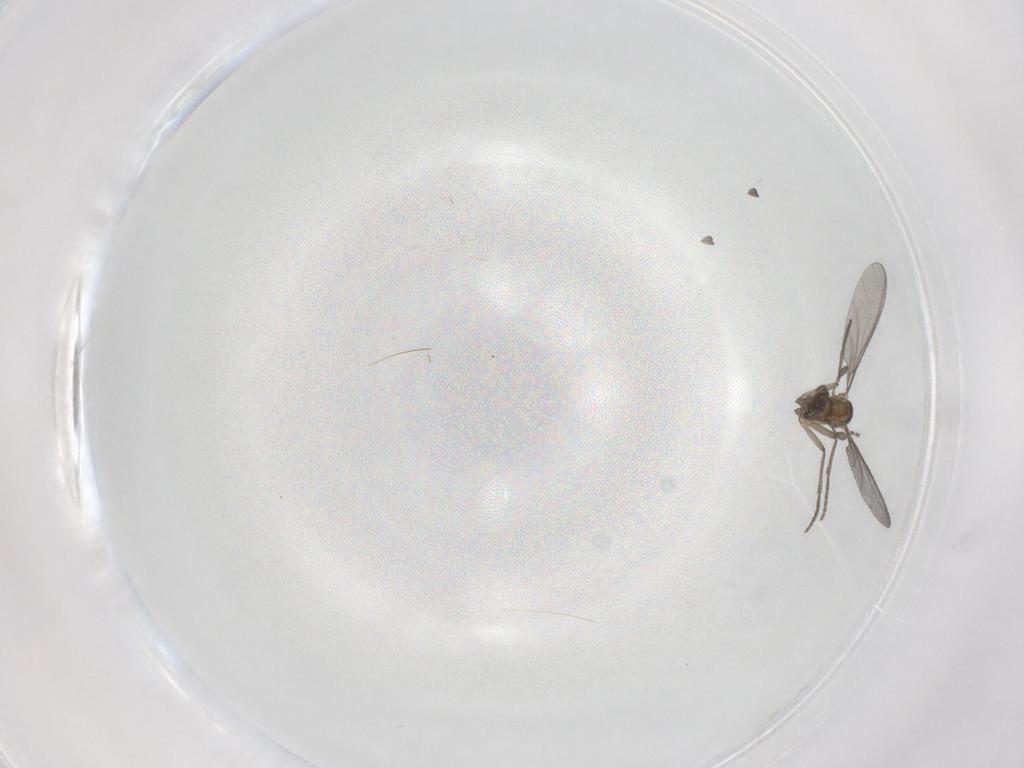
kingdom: Animalia
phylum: Arthropoda
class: Insecta
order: Diptera
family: Sciaridae
